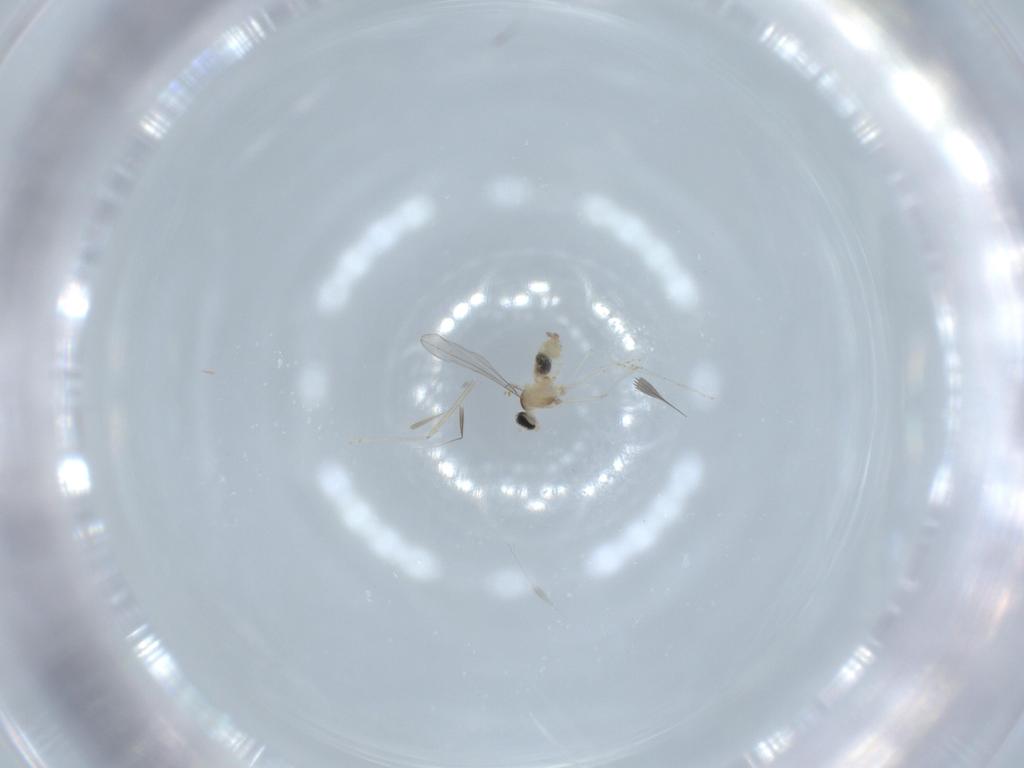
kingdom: Animalia
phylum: Arthropoda
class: Insecta
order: Diptera
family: Cecidomyiidae
